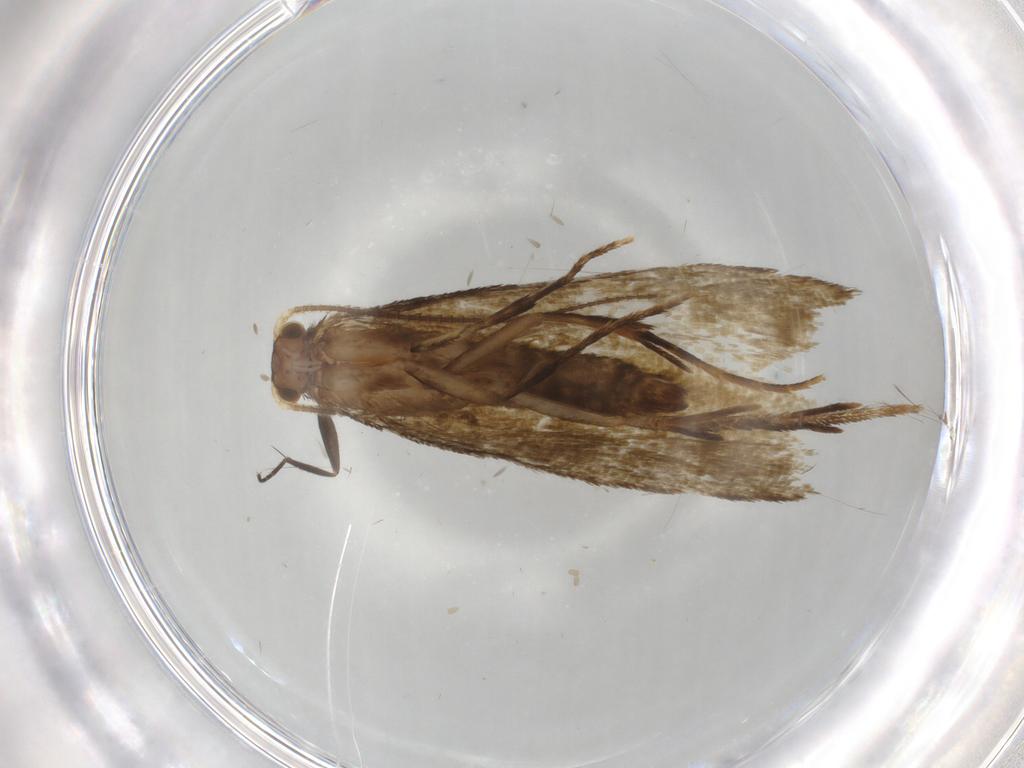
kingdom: Animalia
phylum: Arthropoda
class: Insecta
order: Lepidoptera
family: Tineidae
